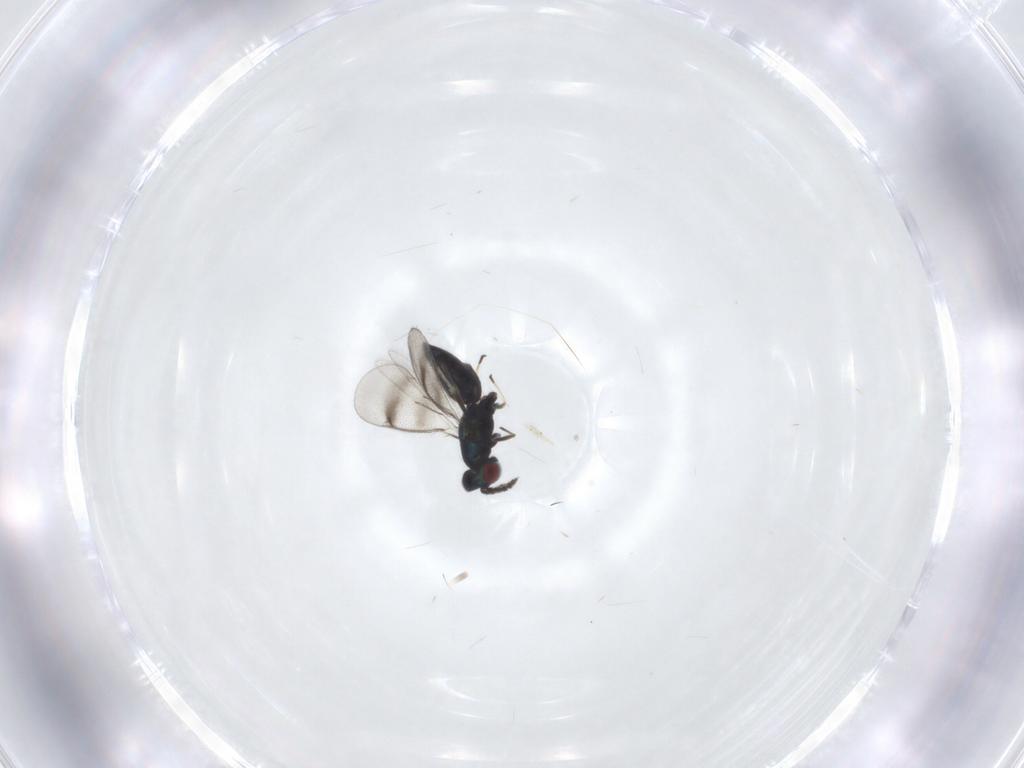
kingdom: Animalia
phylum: Arthropoda
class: Insecta
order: Hymenoptera
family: Eulophidae
